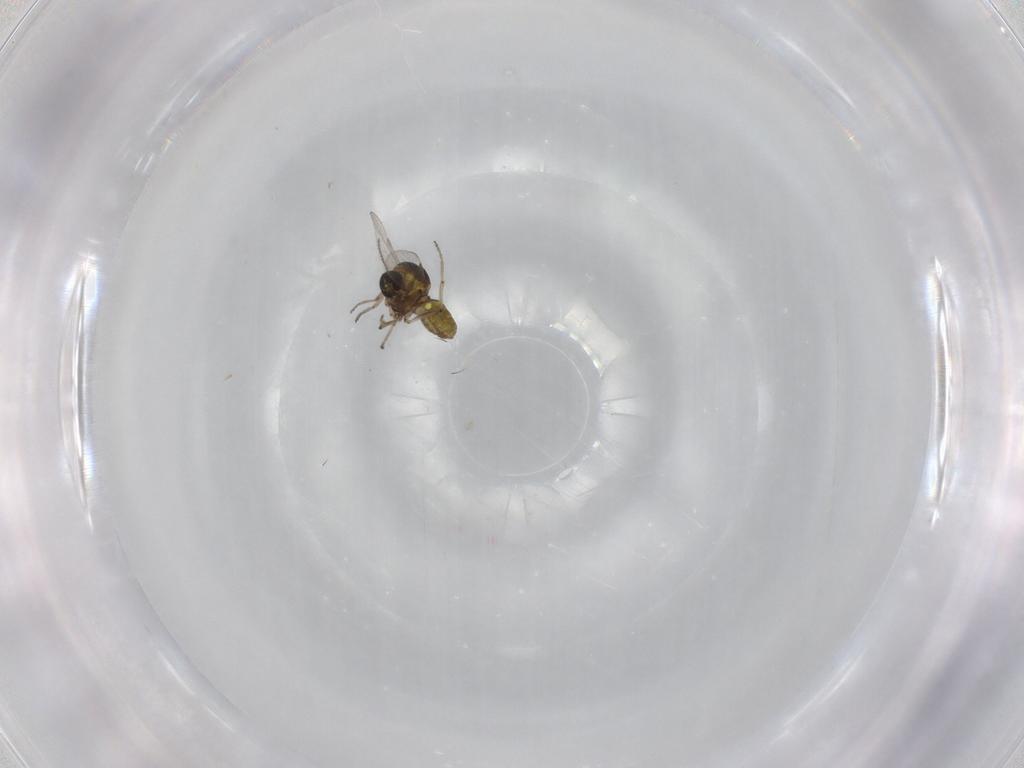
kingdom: Animalia
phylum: Arthropoda
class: Insecta
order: Diptera
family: Ceratopogonidae
